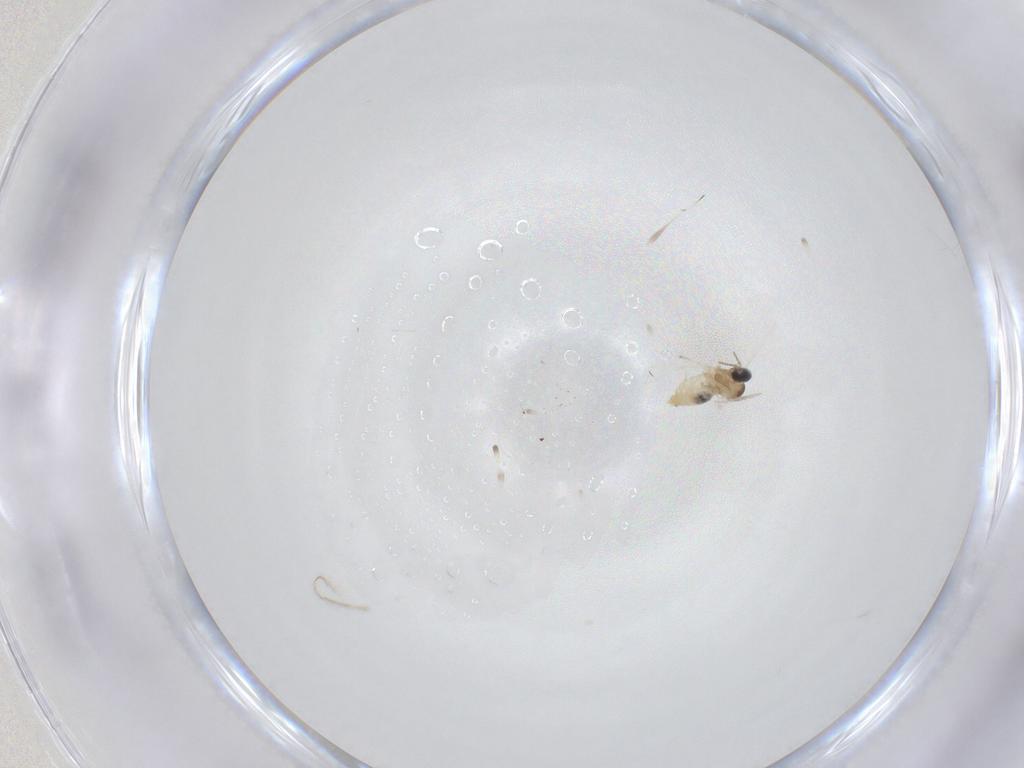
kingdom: Animalia
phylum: Arthropoda
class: Insecta
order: Diptera
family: Cecidomyiidae
